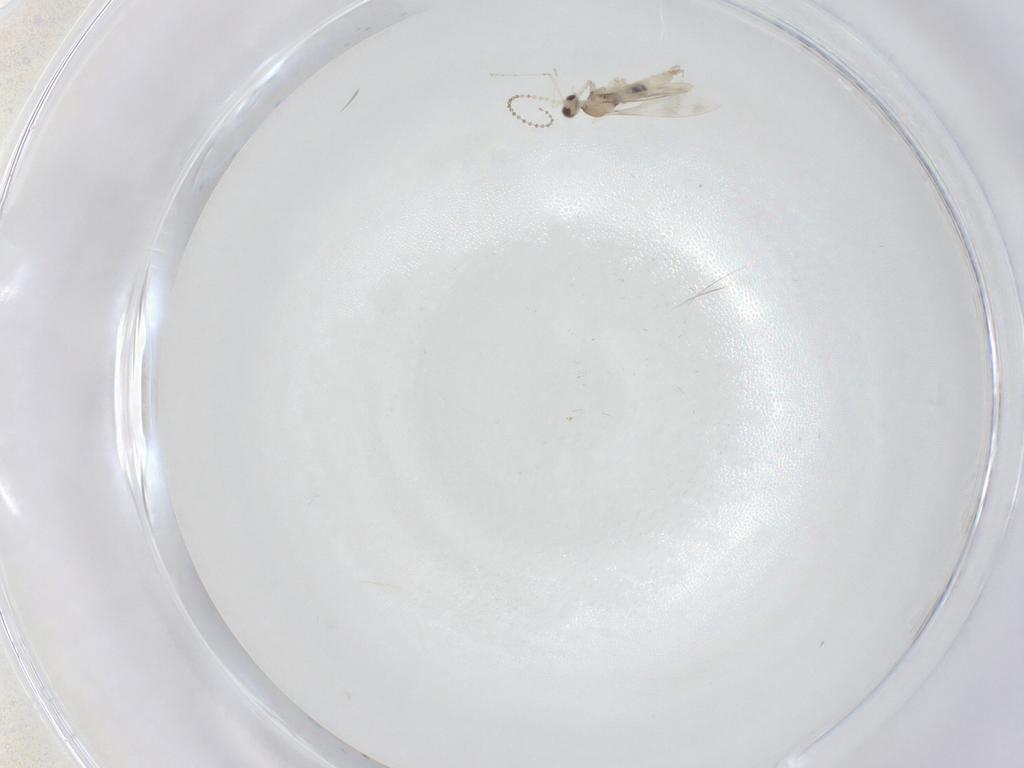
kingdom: Animalia
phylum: Arthropoda
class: Insecta
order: Diptera
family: Cecidomyiidae
